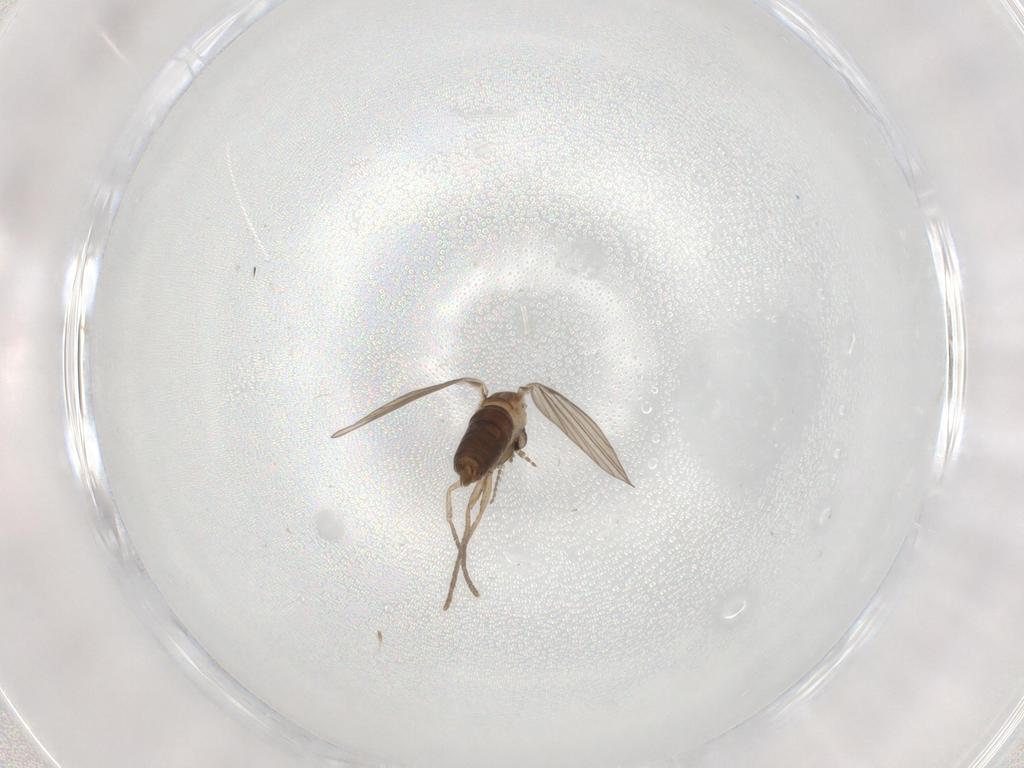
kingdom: Animalia
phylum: Arthropoda
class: Insecta
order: Diptera
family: Psychodidae
